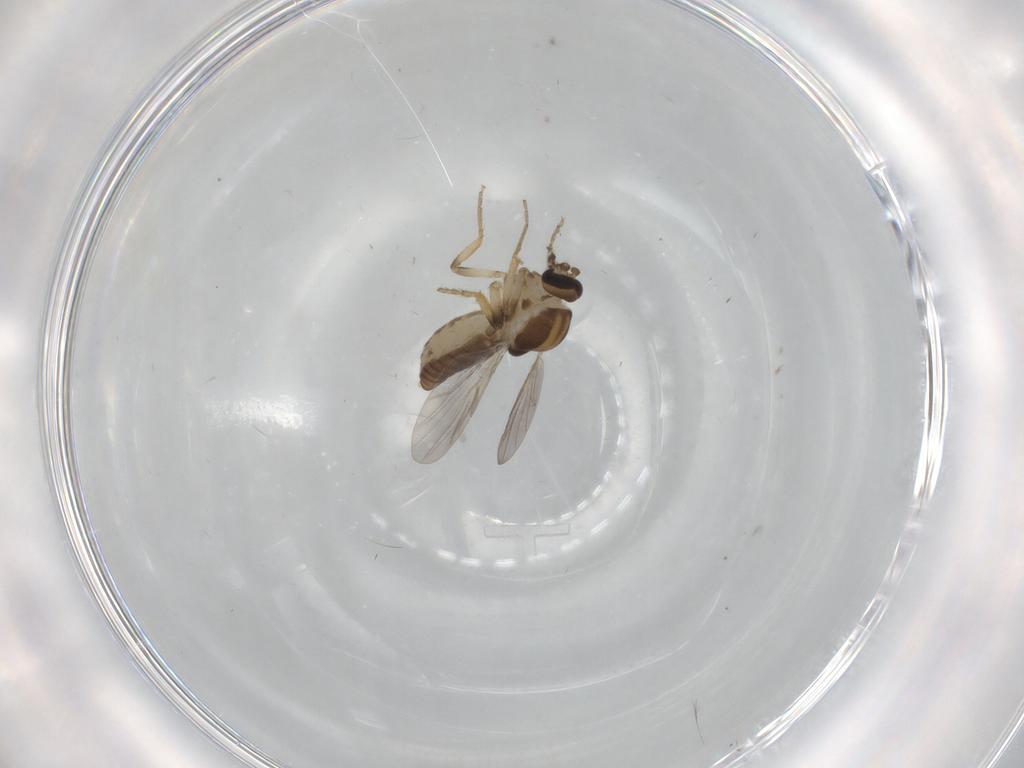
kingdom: Animalia
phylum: Arthropoda
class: Insecta
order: Diptera
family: Ceratopogonidae
